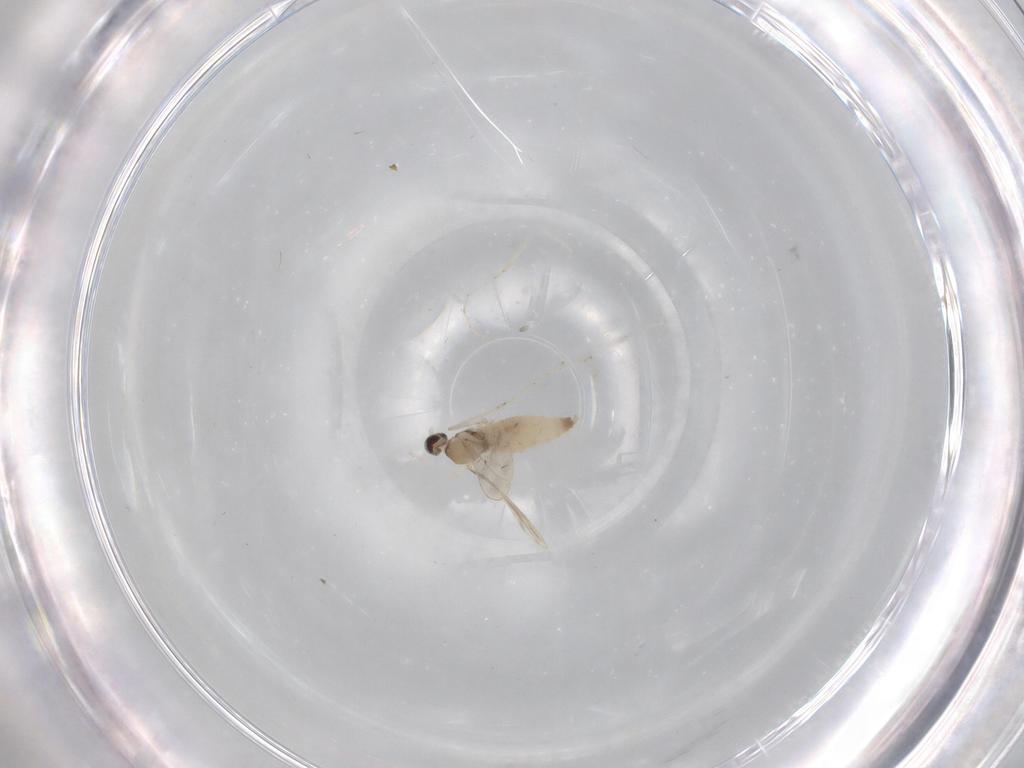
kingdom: Animalia
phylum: Arthropoda
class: Insecta
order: Diptera
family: Cecidomyiidae
